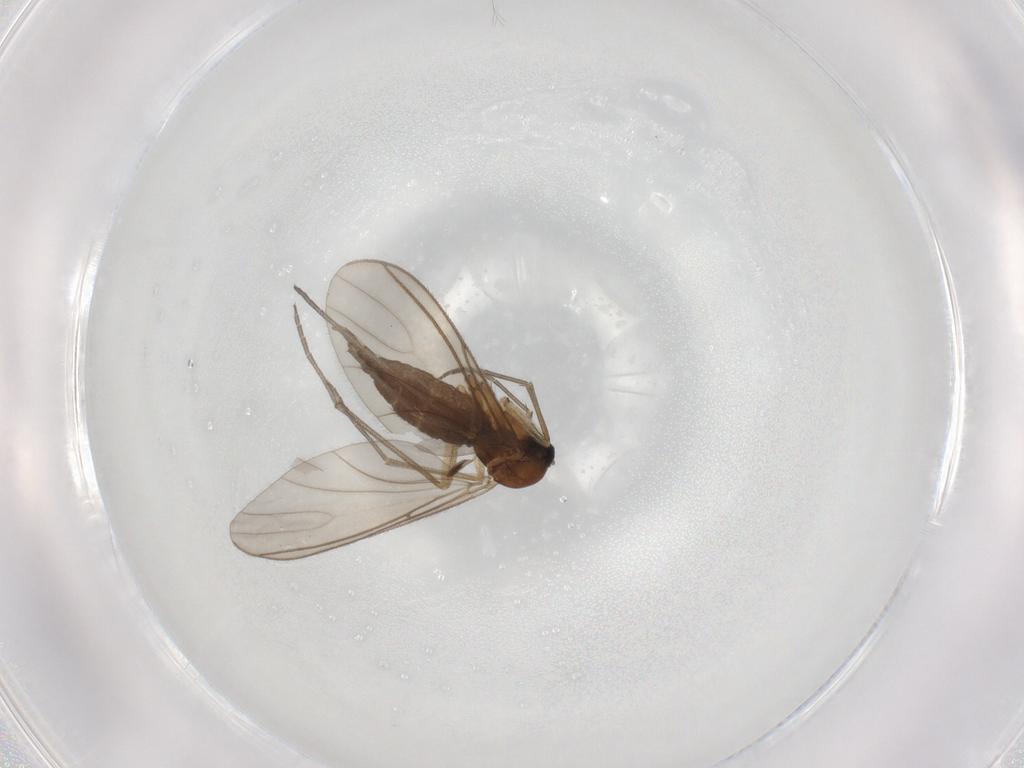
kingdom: Animalia
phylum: Arthropoda
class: Insecta
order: Diptera
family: Sciaridae
